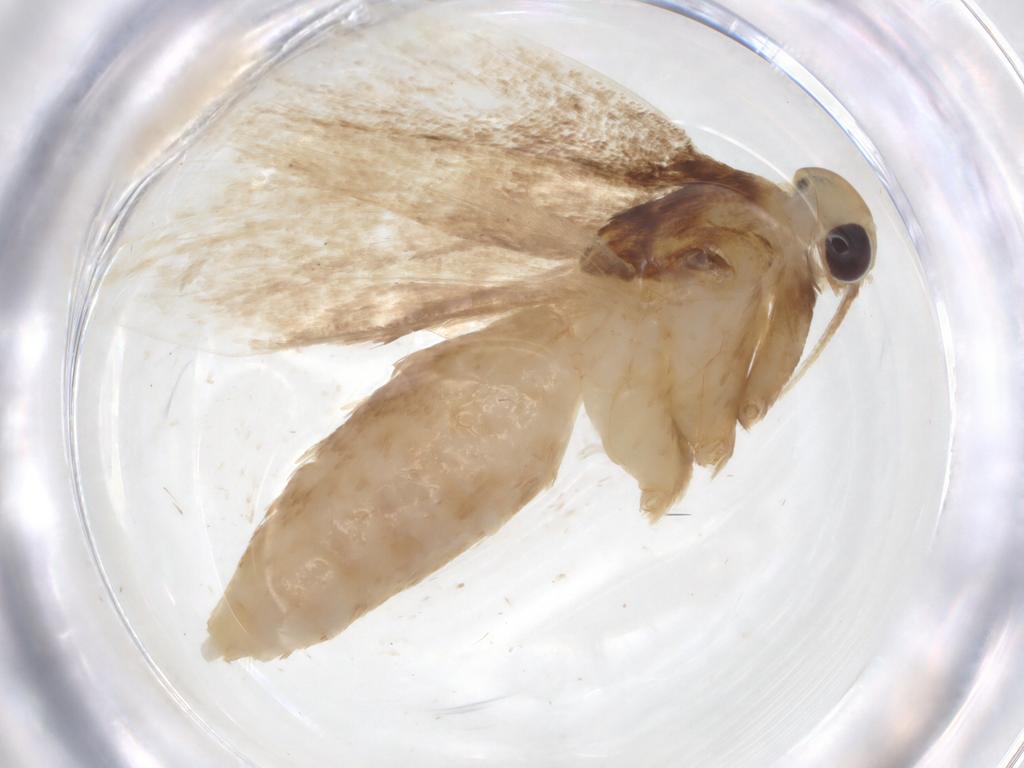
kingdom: Animalia
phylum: Arthropoda
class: Insecta
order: Lepidoptera
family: Lecithoceridae
